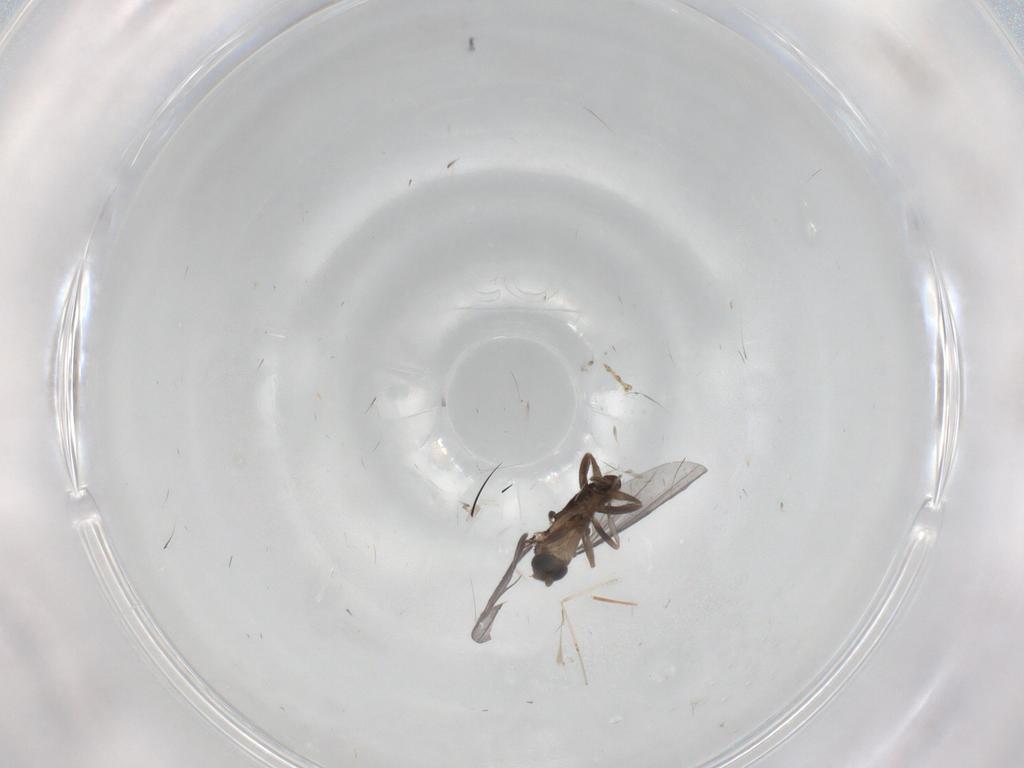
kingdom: Animalia
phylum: Arthropoda
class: Insecta
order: Diptera
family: Phoridae
